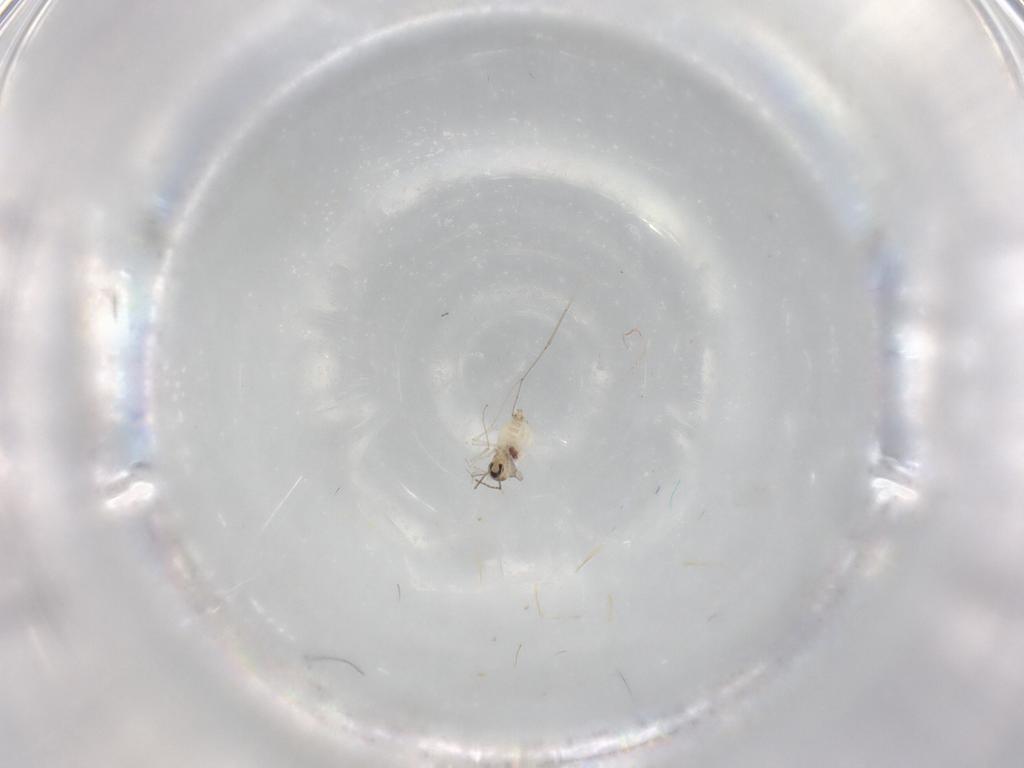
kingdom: Animalia
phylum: Arthropoda
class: Insecta
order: Diptera
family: Cecidomyiidae
